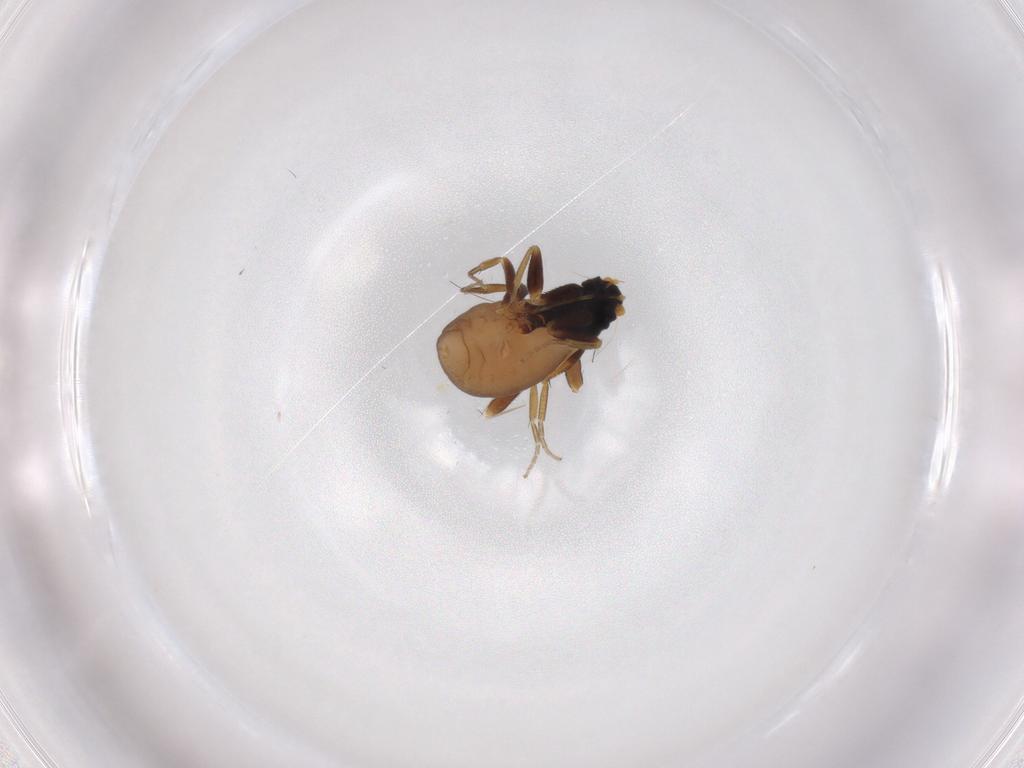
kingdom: Animalia
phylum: Arthropoda
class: Insecta
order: Diptera
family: Phoridae
